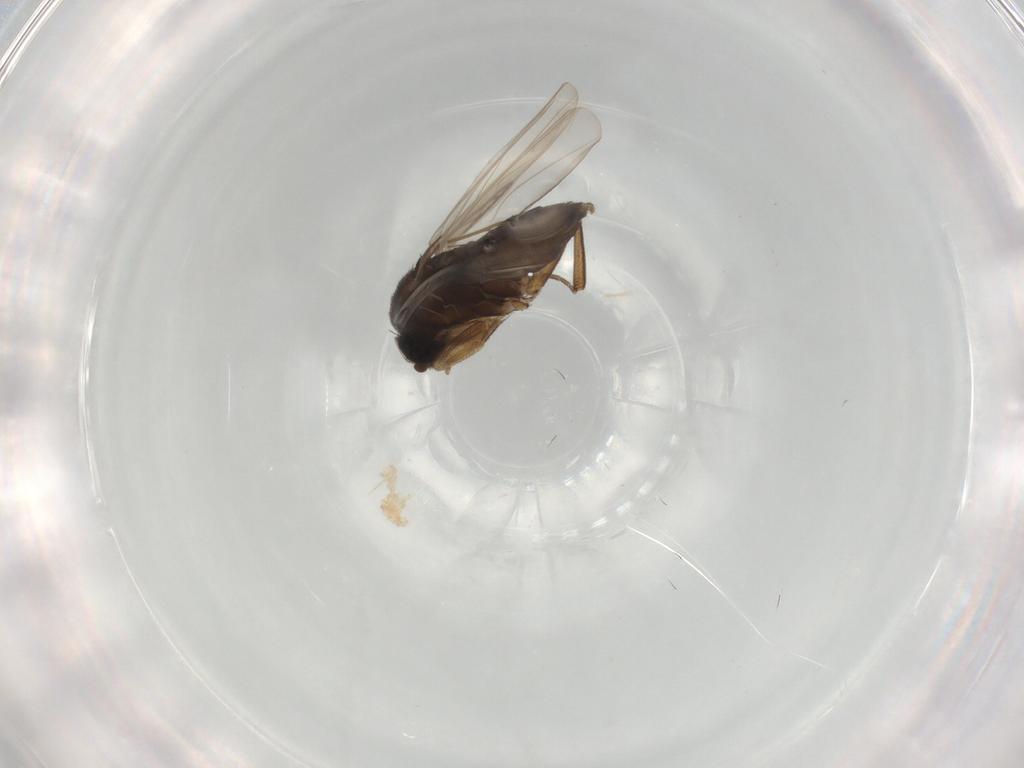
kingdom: Animalia
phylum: Arthropoda
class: Insecta
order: Diptera
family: Phoridae
